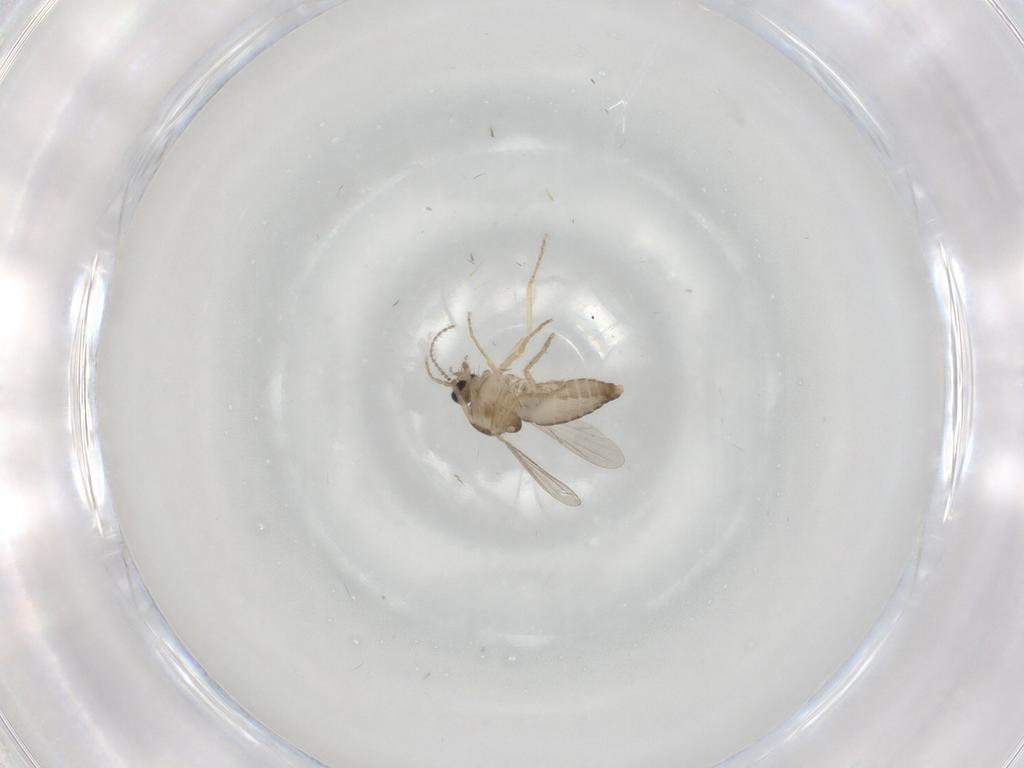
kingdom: Animalia
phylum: Arthropoda
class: Insecta
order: Diptera
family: Ceratopogonidae
